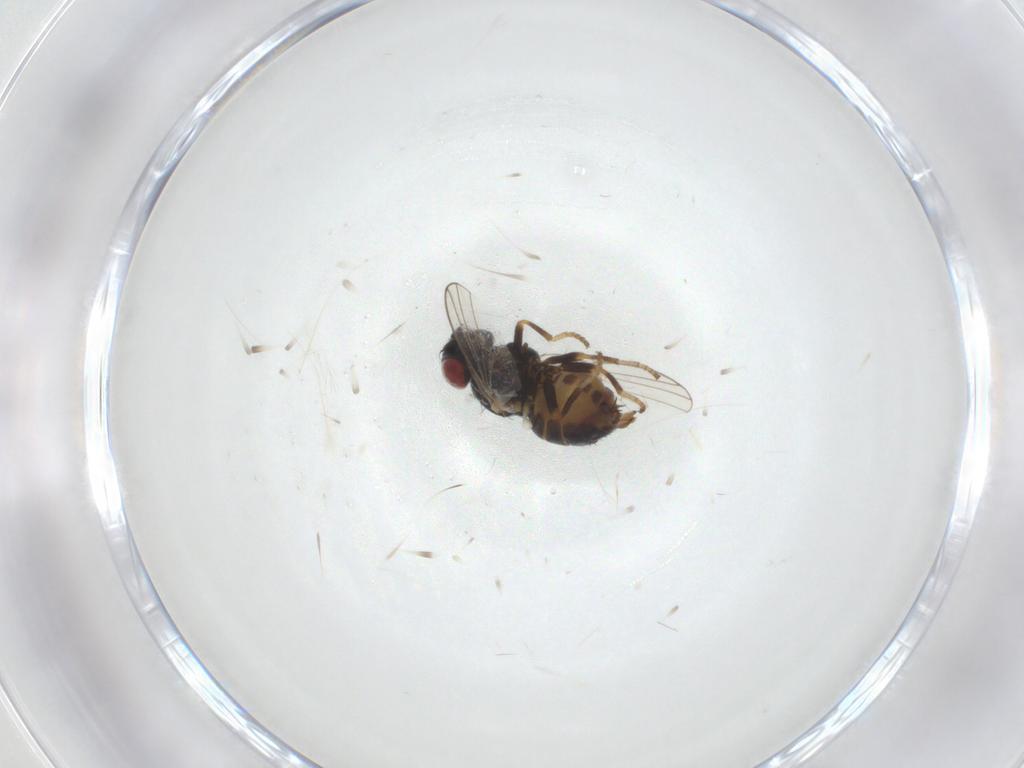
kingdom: Animalia
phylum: Arthropoda
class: Insecta
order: Diptera
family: Chamaemyiidae
